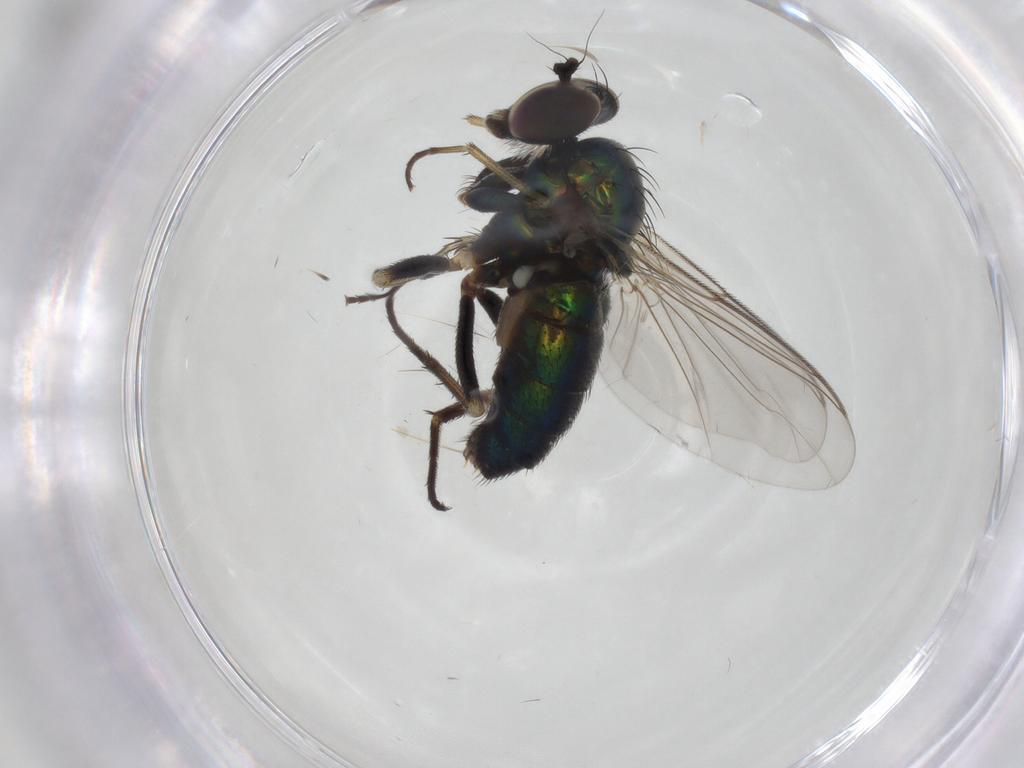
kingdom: Animalia
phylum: Arthropoda
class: Insecta
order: Diptera
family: Dolichopodidae
